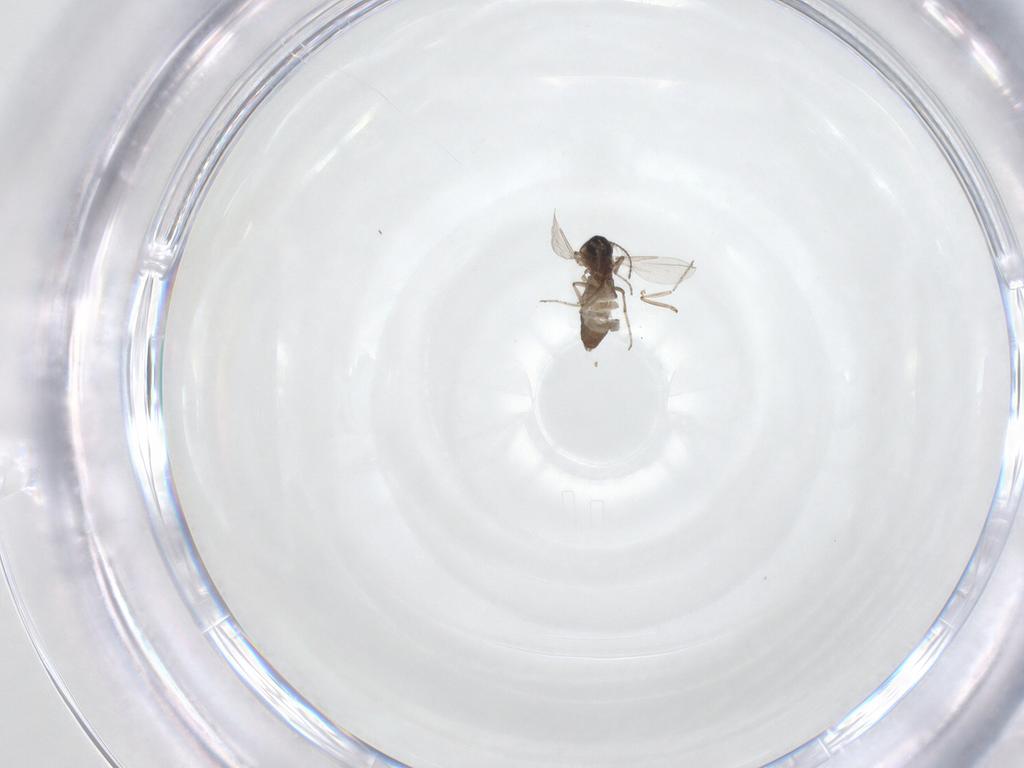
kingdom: Animalia
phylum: Arthropoda
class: Insecta
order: Diptera
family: Ceratopogonidae
